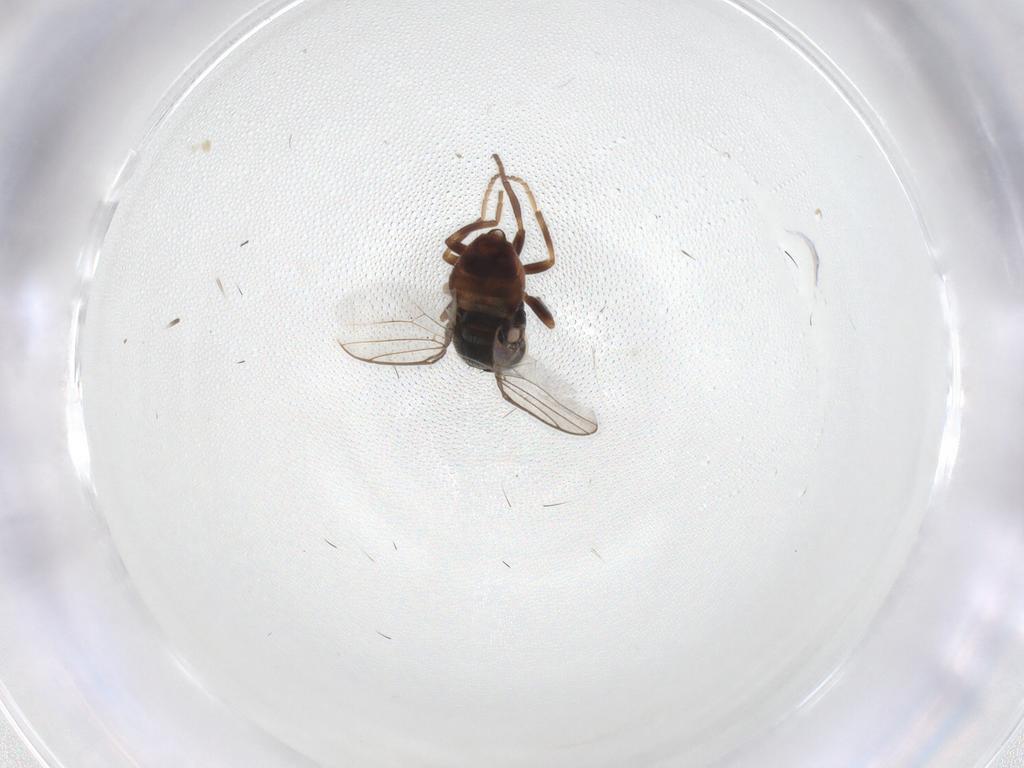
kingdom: Animalia
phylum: Arthropoda
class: Insecta
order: Diptera
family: Chloropidae
